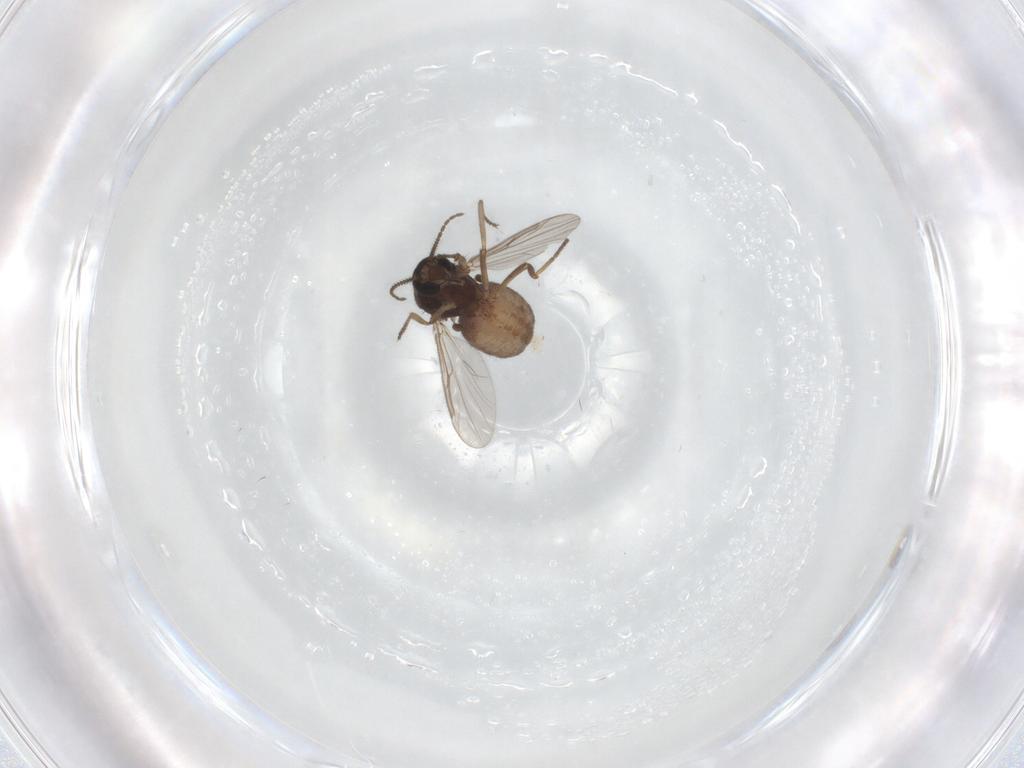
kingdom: Animalia
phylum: Arthropoda
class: Insecta
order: Diptera
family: Ceratopogonidae
